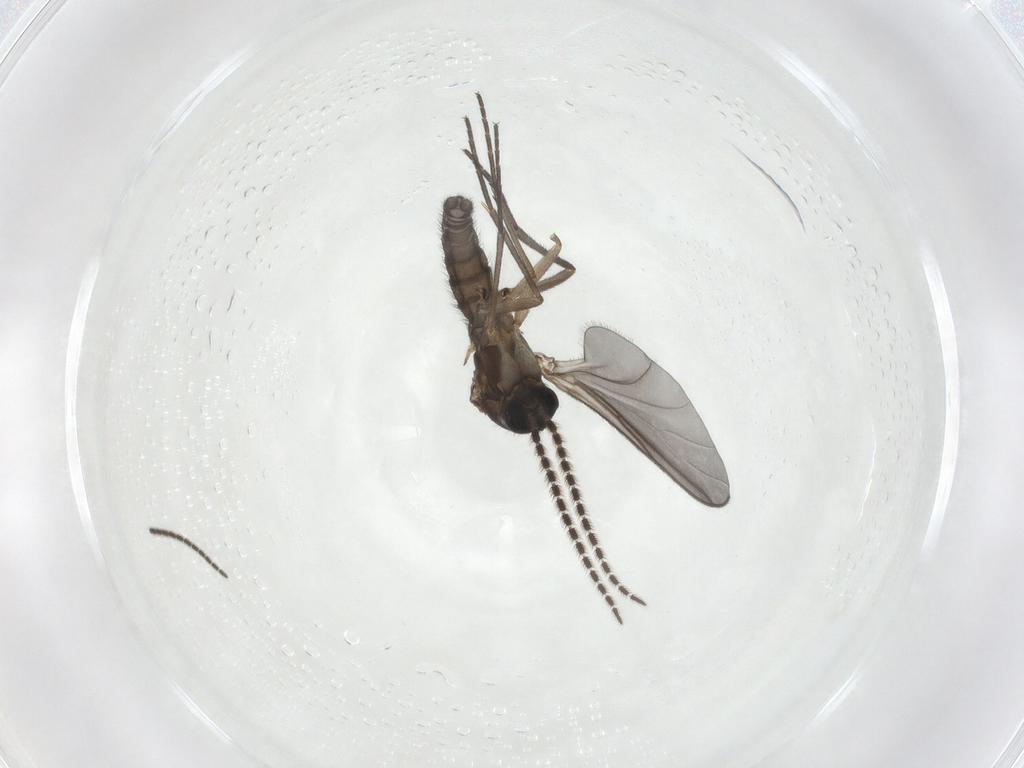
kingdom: Animalia
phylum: Arthropoda
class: Insecta
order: Diptera
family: Sciaridae
